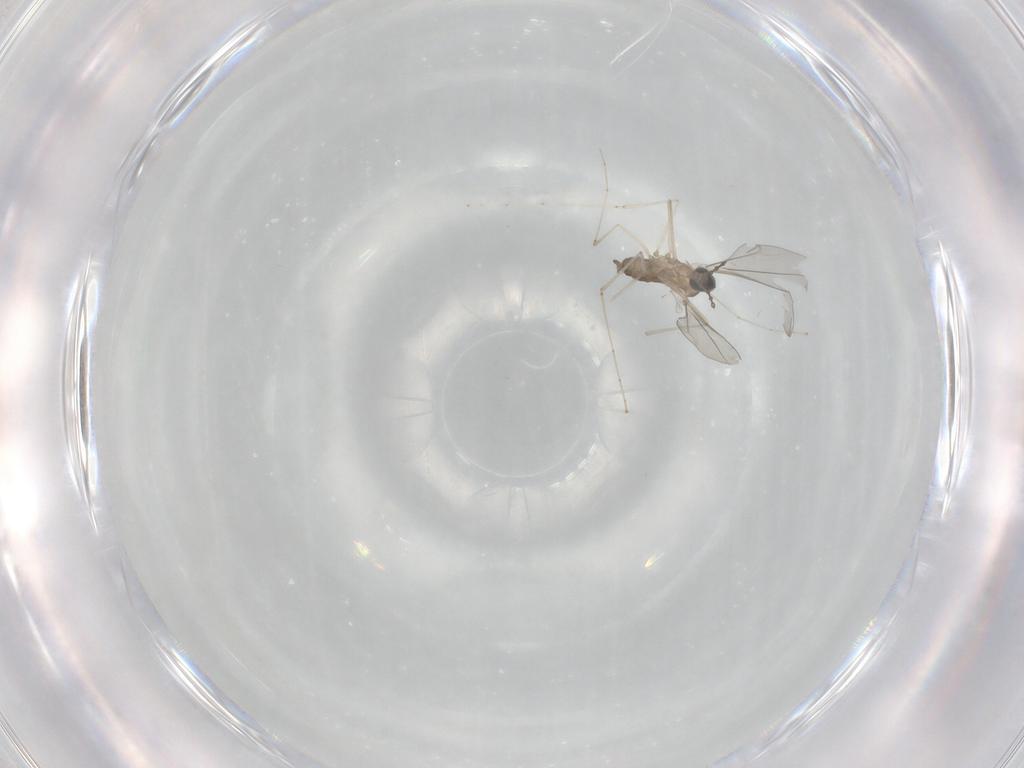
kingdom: Animalia
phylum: Arthropoda
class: Insecta
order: Diptera
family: Cecidomyiidae
